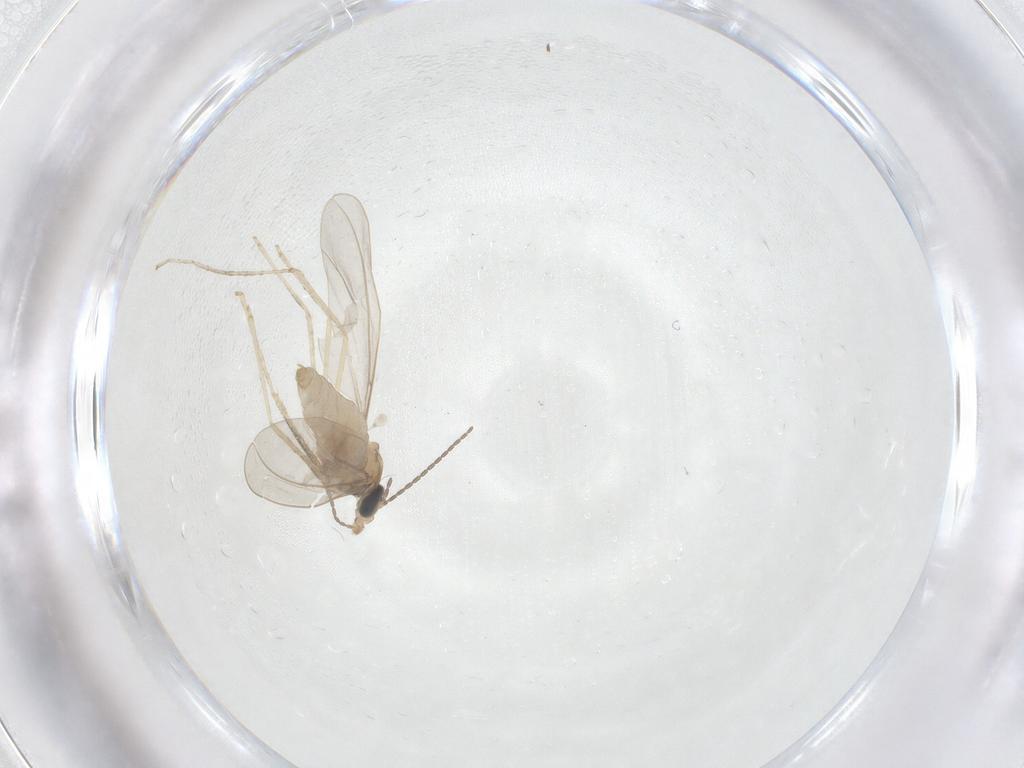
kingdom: Animalia
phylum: Arthropoda
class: Insecta
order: Diptera
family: Cecidomyiidae
